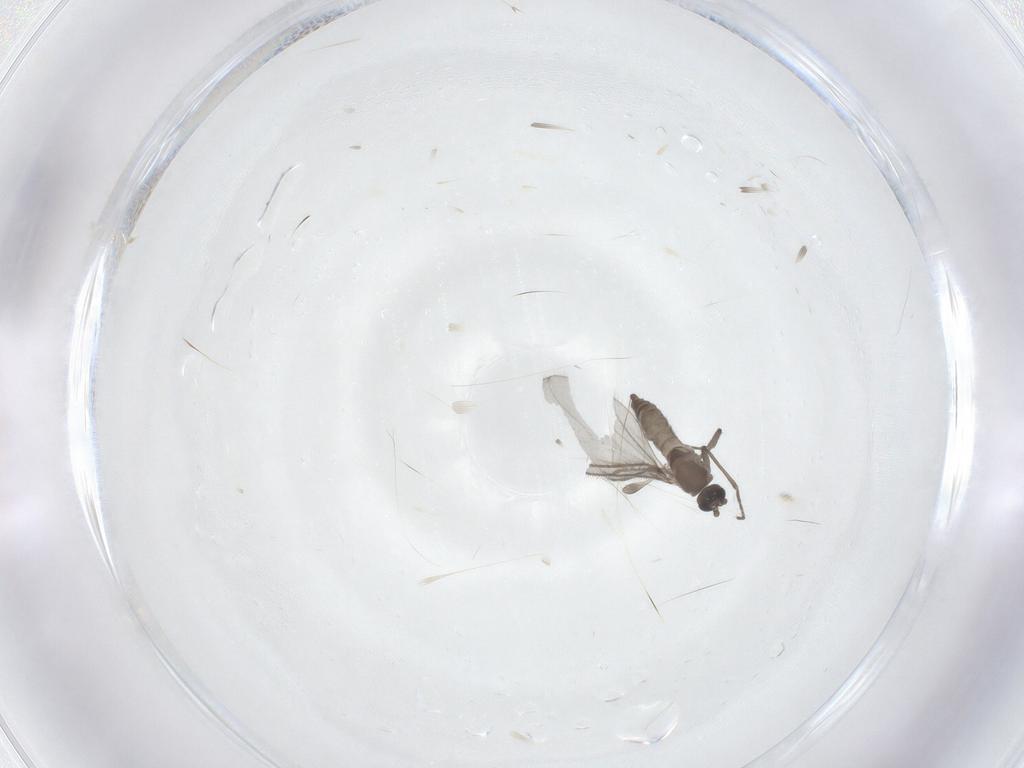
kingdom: Animalia
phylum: Arthropoda
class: Insecta
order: Diptera
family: Sciaridae
